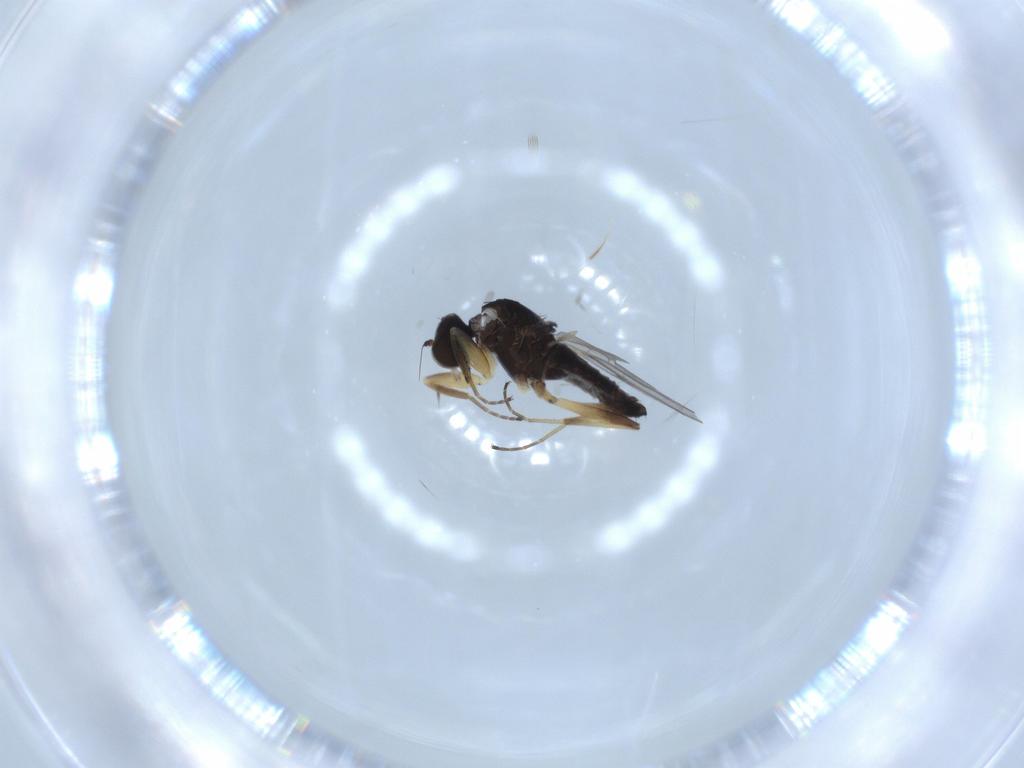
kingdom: Animalia
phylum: Arthropoda
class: Insecta
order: Diptera
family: Hybotidae
